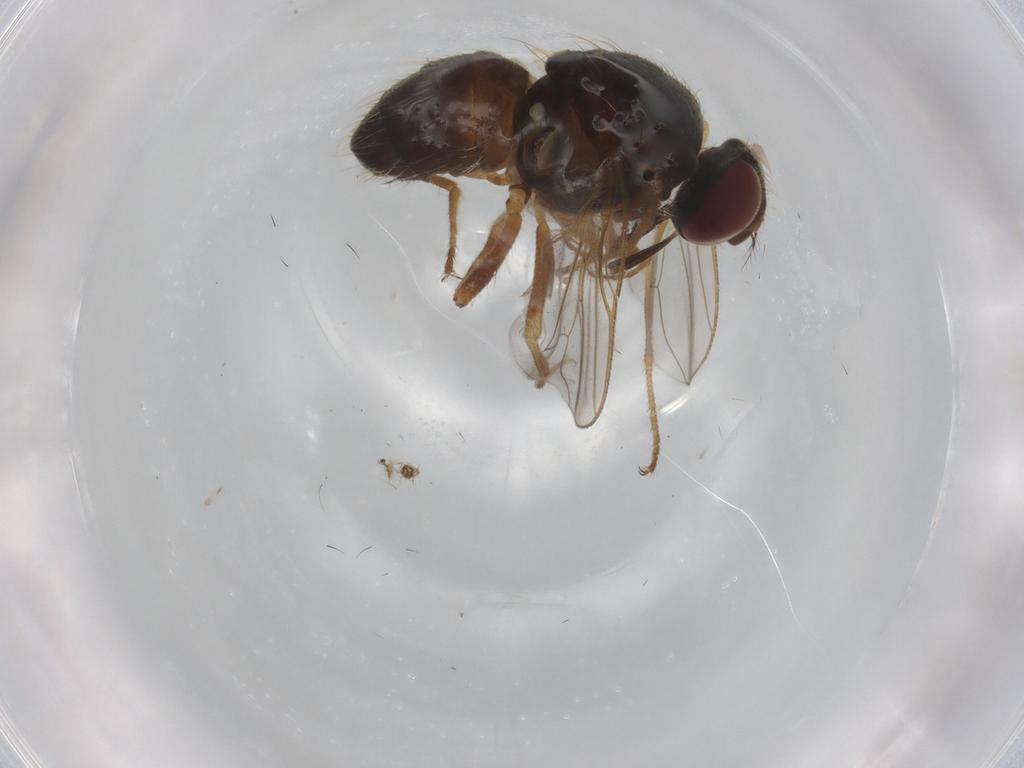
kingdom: Animalia
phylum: Arthropoda
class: Insecta
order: Diptera
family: Muscidae
